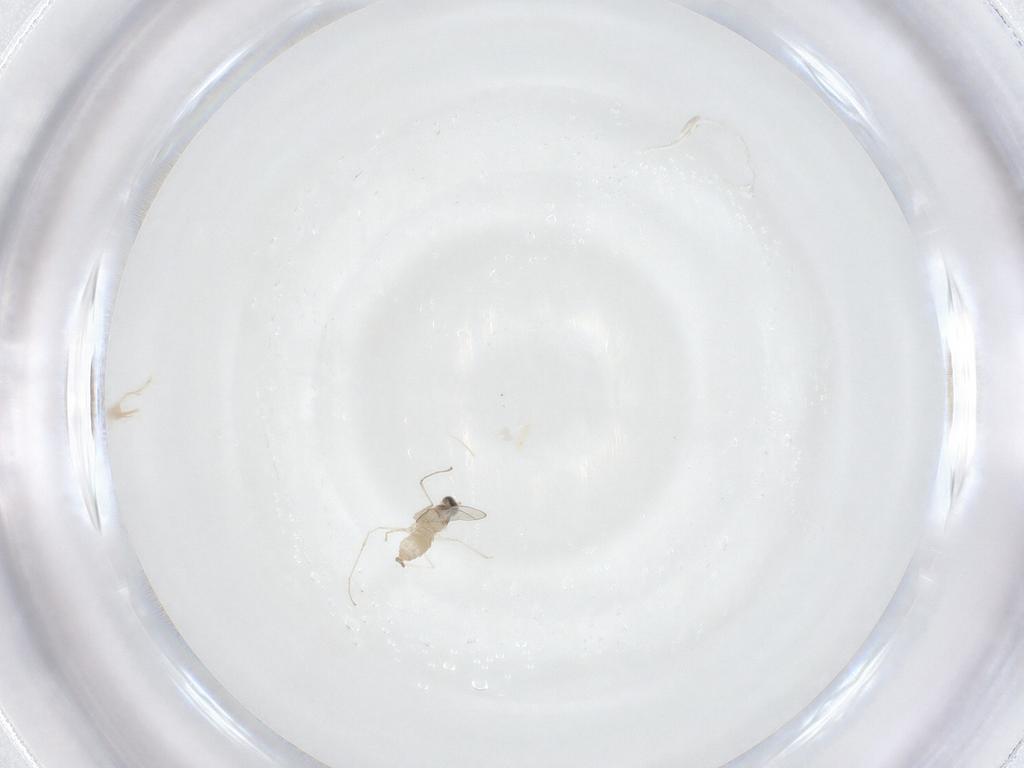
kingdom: Animalia
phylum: Arthropoda
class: Insecta
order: Diptera
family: Cecidomyiidae
